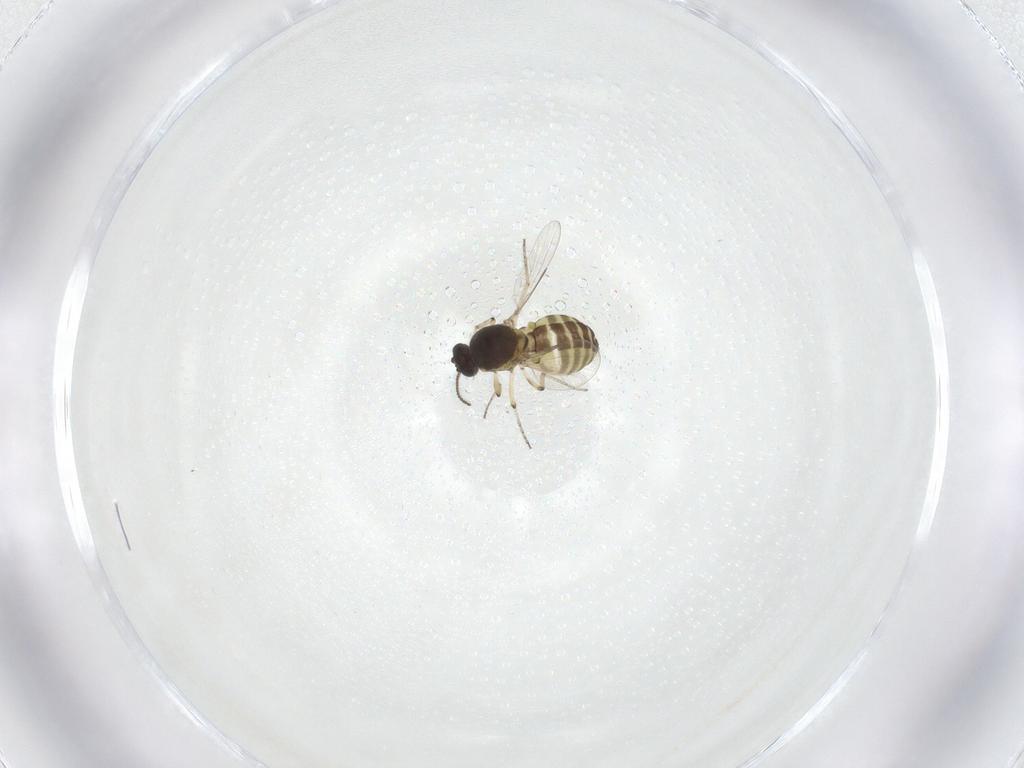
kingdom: Animalia
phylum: Arthropoda
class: Insecta
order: Diptera
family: Ceratopogonidae
